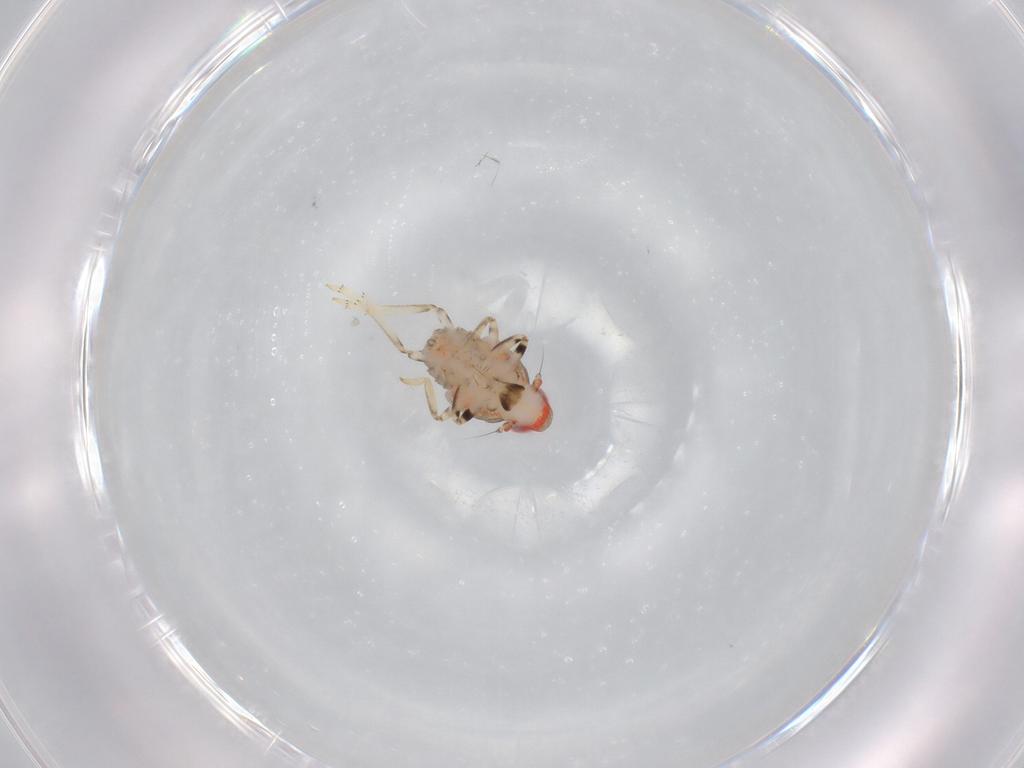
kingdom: Animalia
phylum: Arthropoda
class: Insecta
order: Hemiptera
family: Issidae
